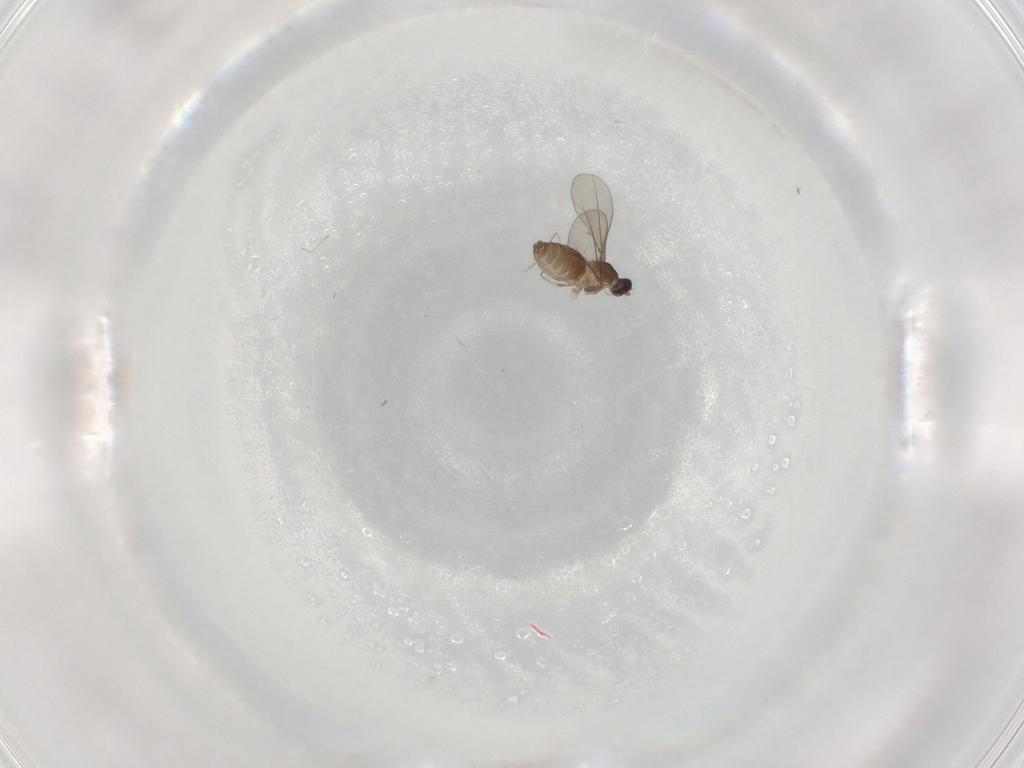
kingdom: Animalia
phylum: Arthropoda
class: Insecta
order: Diptera
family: Cecidomyiidae
